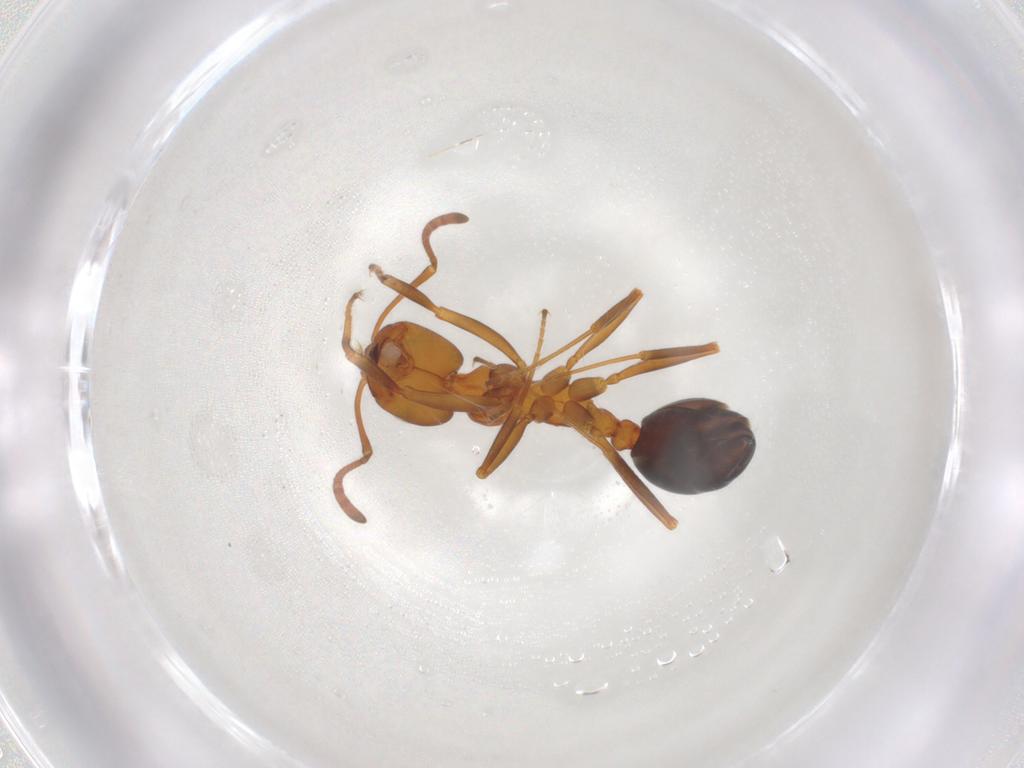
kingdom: Animalia
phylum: Arthropoda
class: Insecta
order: Hymenoptera
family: Formicidae
